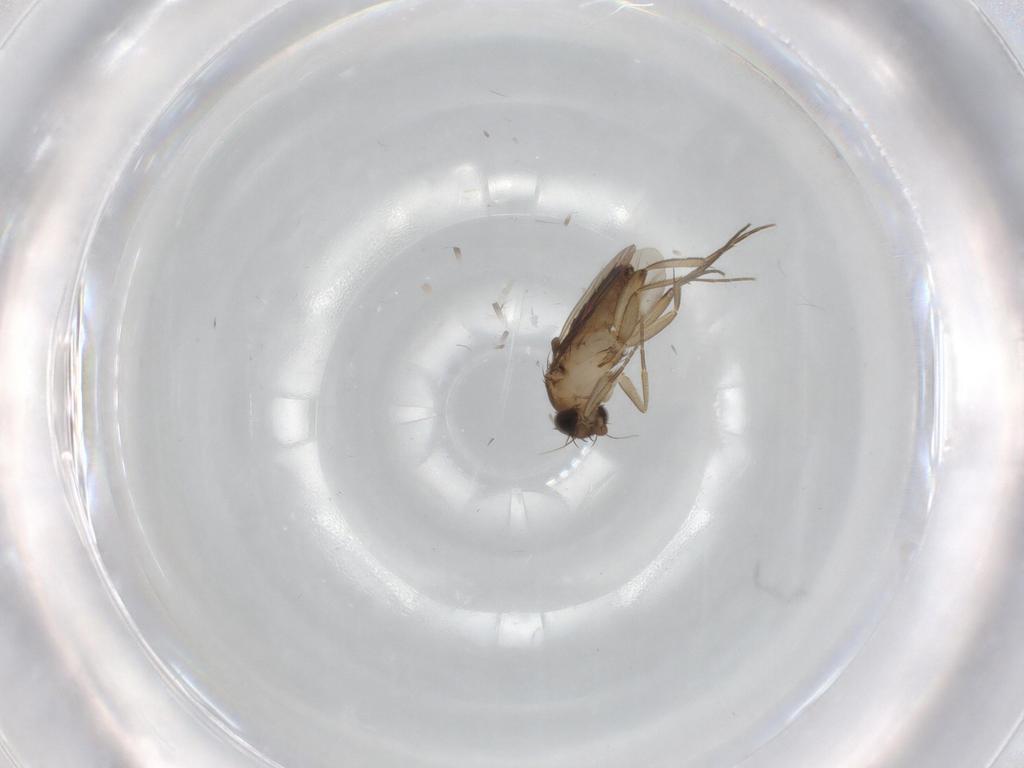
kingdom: Animalia
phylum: Arthropoda
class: Insecta
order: Diptera
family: Phoridae
